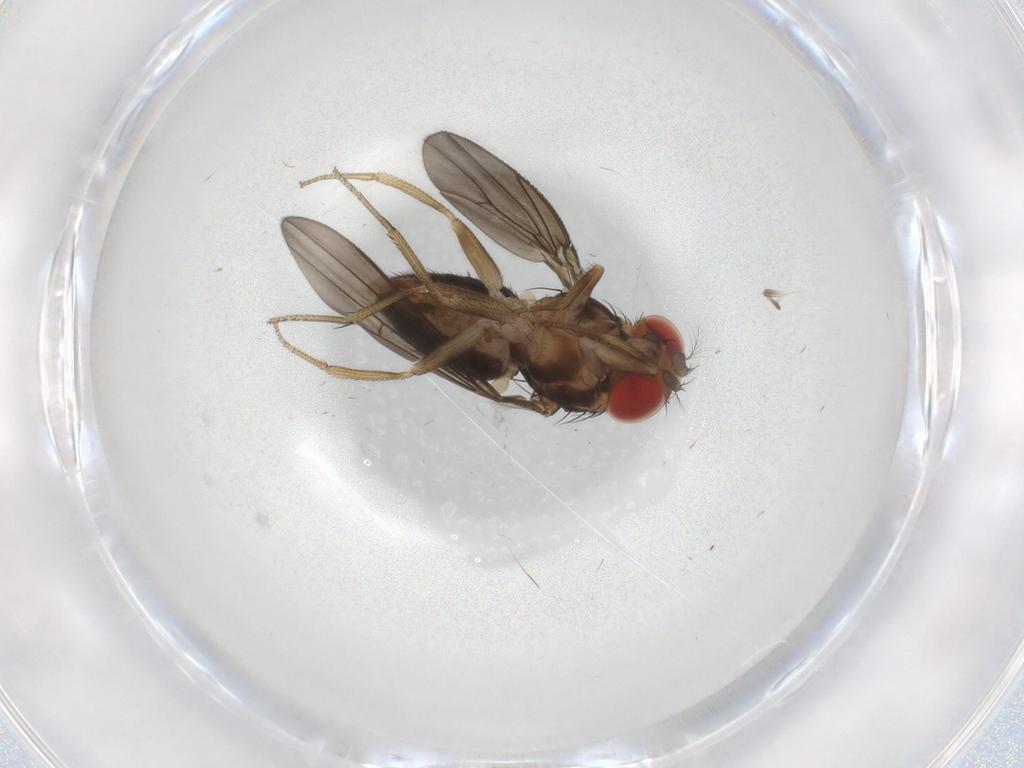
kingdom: Animalia
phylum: Arthropoda
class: Insecta
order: Diptera
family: Drosophilidae
